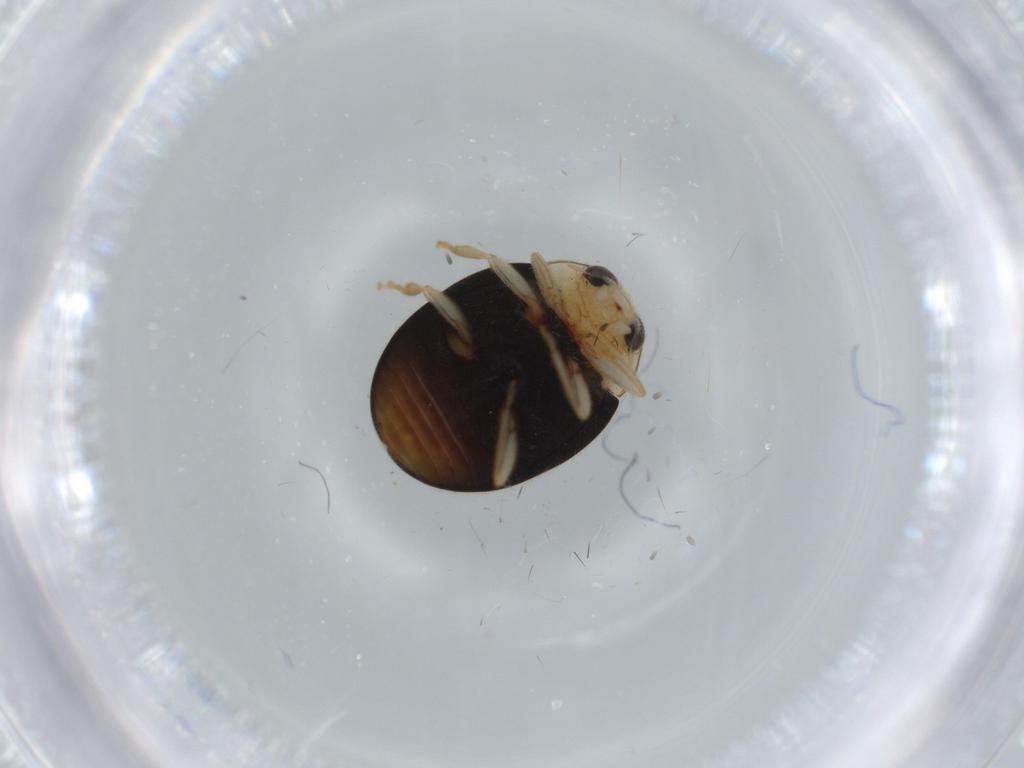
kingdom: Animalia
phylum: Arthropoda
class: Insecta
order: Coleoptera
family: Coccinellidae
